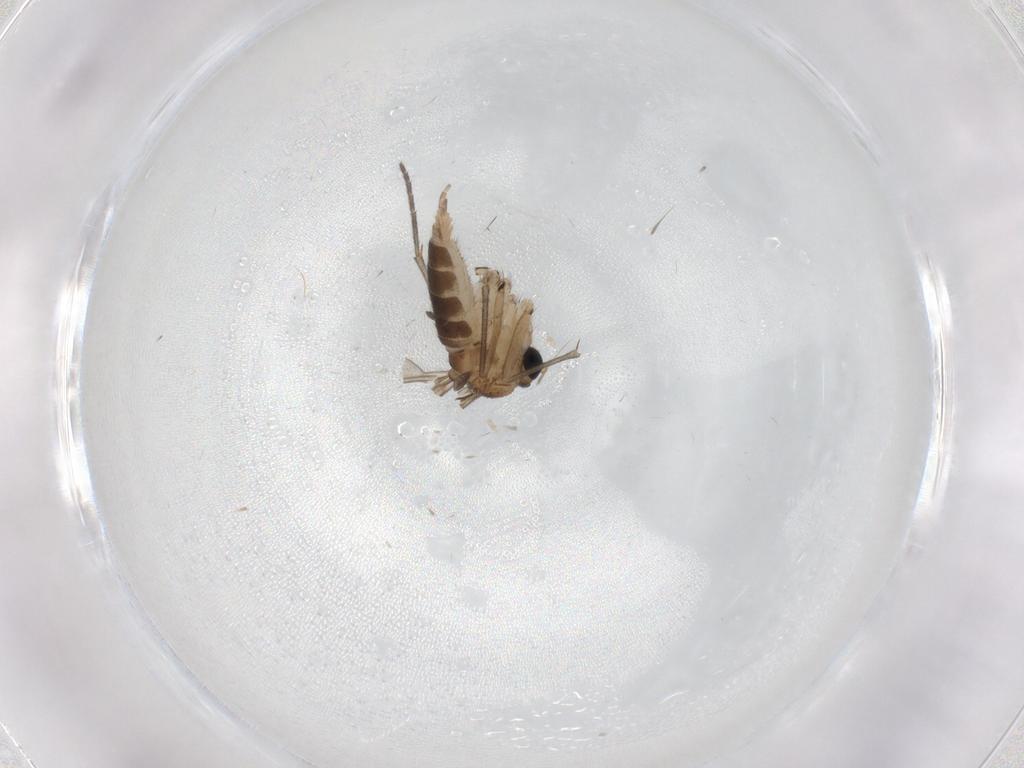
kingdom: Animalia
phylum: Arthropoda
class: Insecta
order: Diptera
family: Sciaridae
